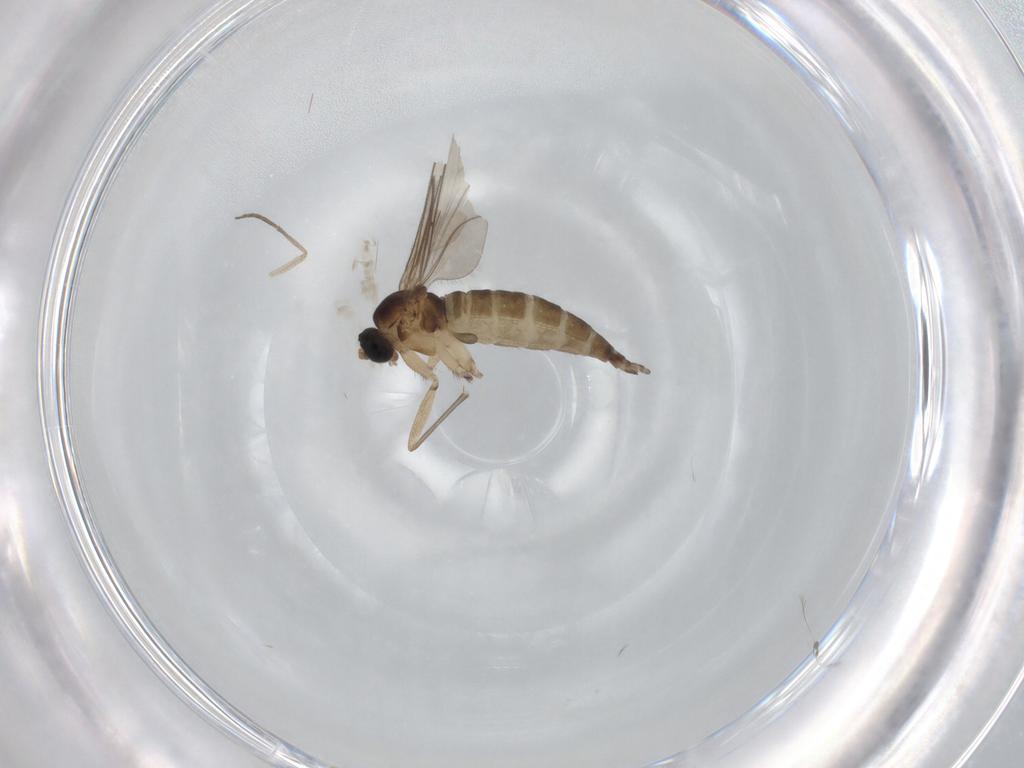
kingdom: Animalia
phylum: Arthropoda
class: Insecta
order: Diptera
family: Sciaridae
